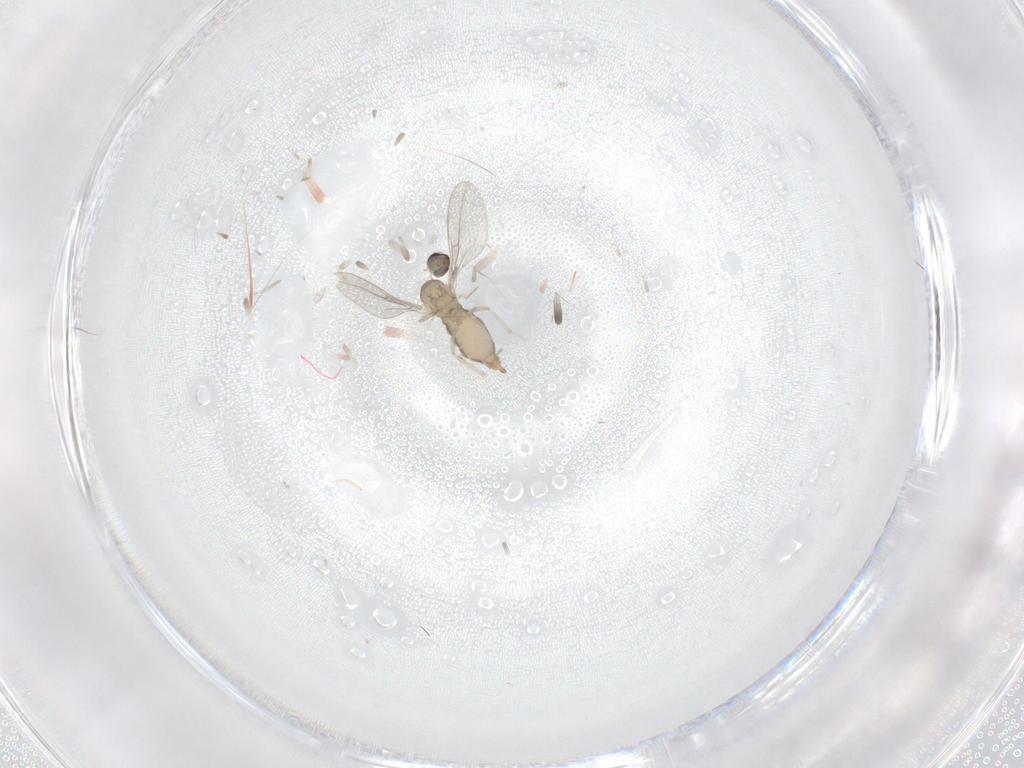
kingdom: Animalia
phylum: Arthropoda
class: Insecta
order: Diptera
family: Cecidomyiidae
